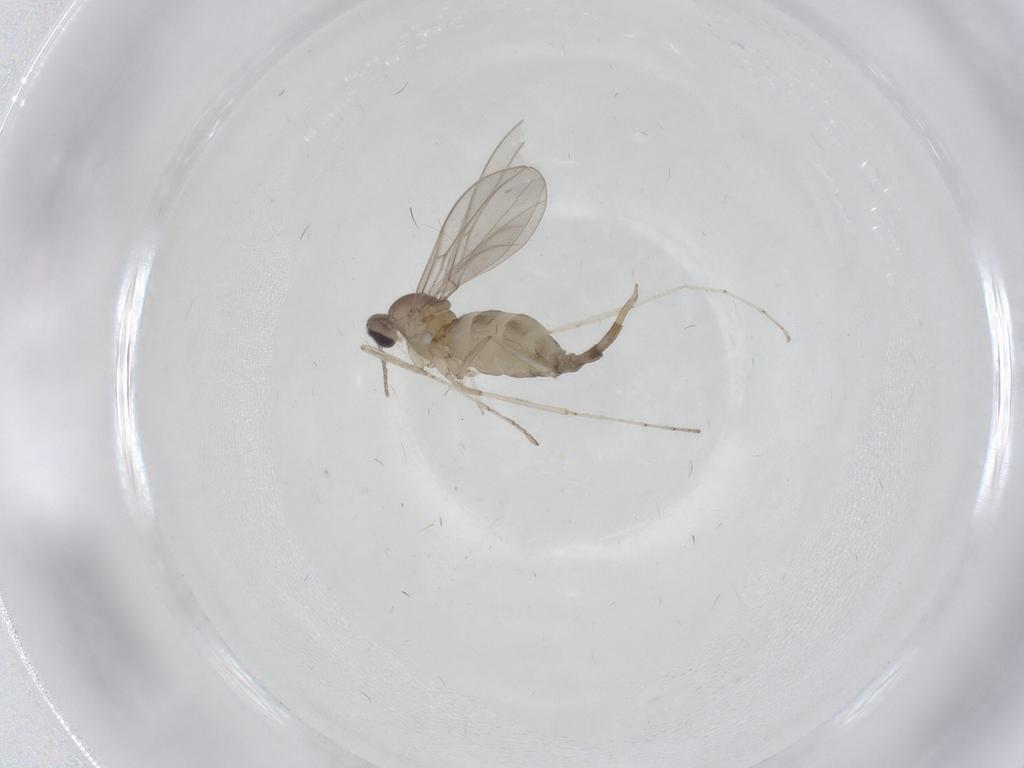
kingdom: Animalia
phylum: Arthropoda
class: Insecta
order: Diptera
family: Cecidomyiidae
